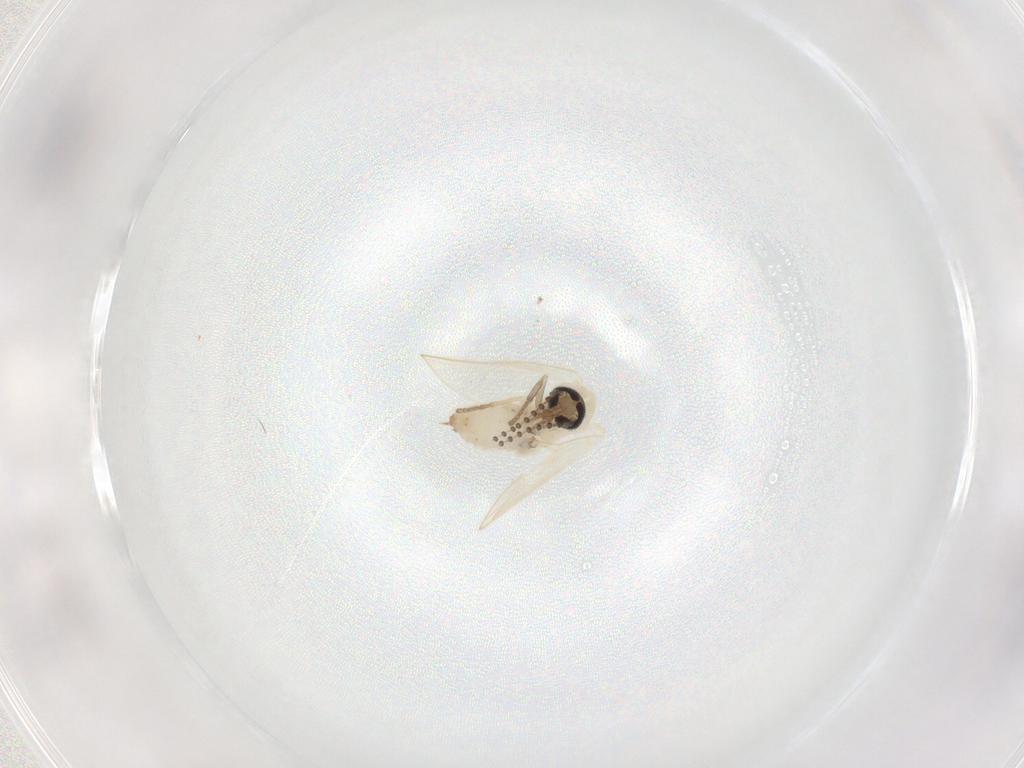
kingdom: Animalia
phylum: Arthropoda
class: Insecta
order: Diptera
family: Psychodidae
